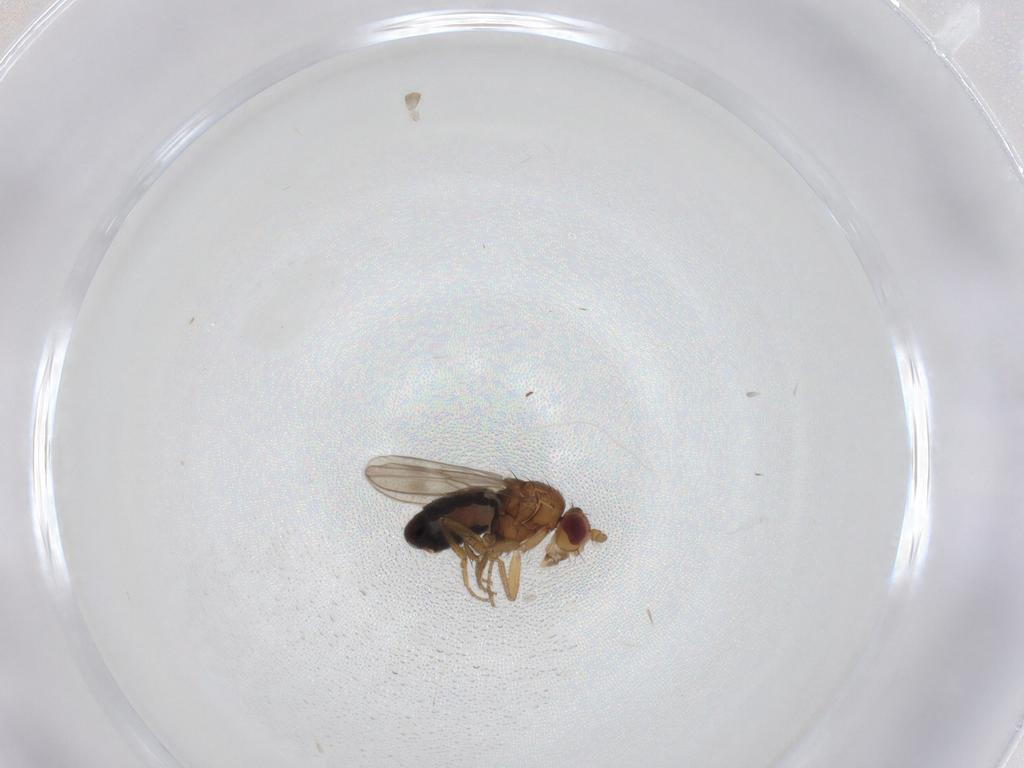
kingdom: Animalia
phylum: Arthropoda
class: Insecta
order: Diptera
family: Sphaeroceridae
